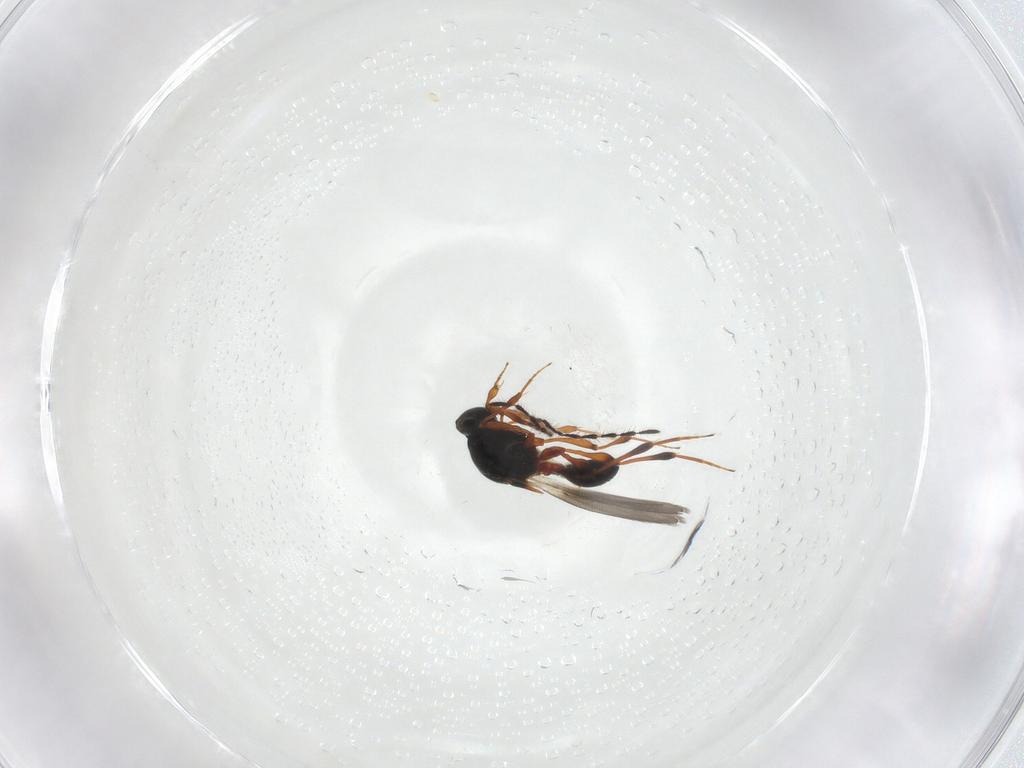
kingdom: Animalia
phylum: Arthropoda
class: Insecta
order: Hymenoptera
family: Platygastridae
